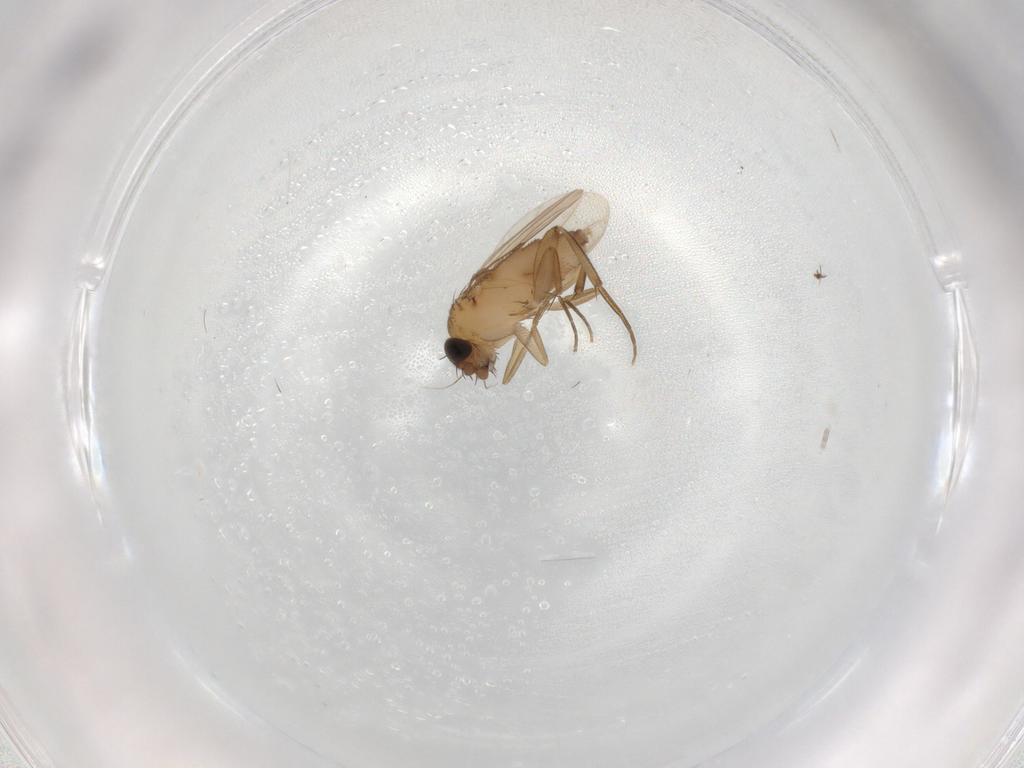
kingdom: Animalia
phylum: Arthropoda
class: Insecta
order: Diptera
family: Phoridae
